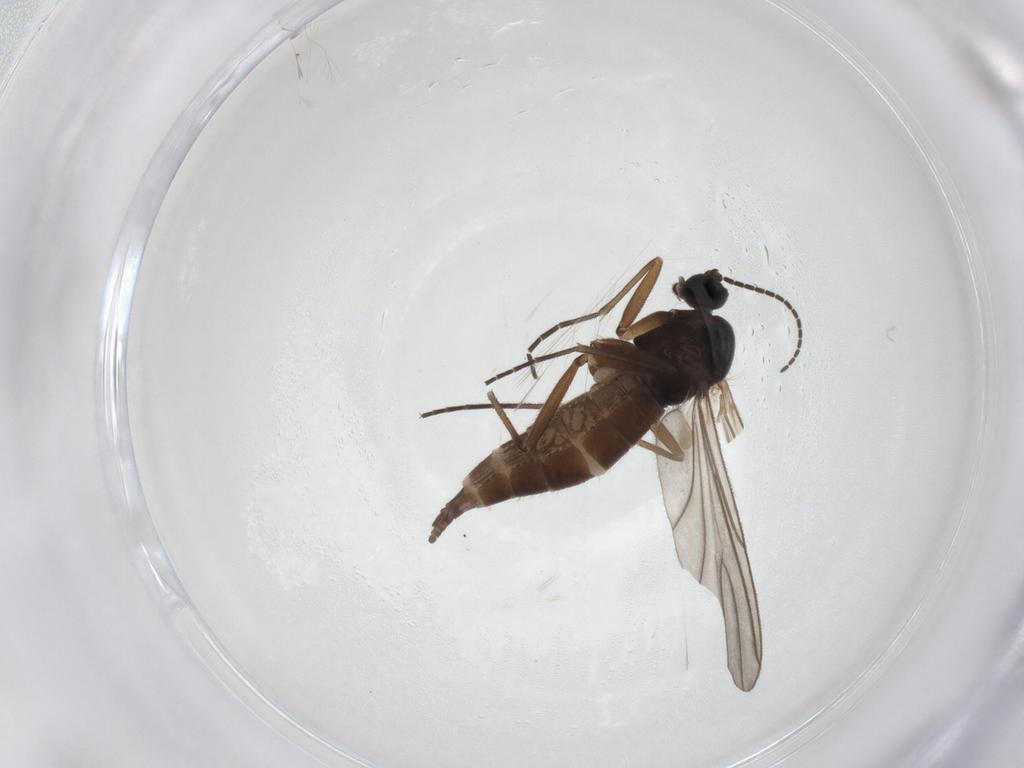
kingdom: Animalia
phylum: Arthropoda
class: Insecta
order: Diptera
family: Sciaridae
